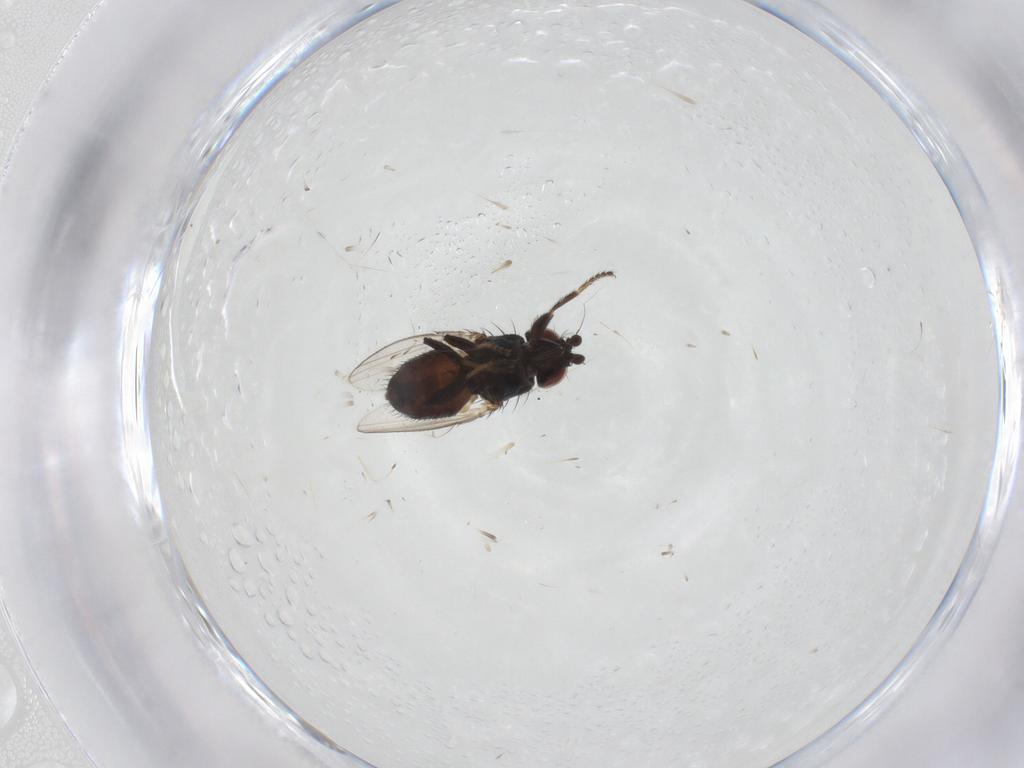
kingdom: Animalia
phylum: Arthropoda
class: Insecta
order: Diptera
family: Milichiidae
